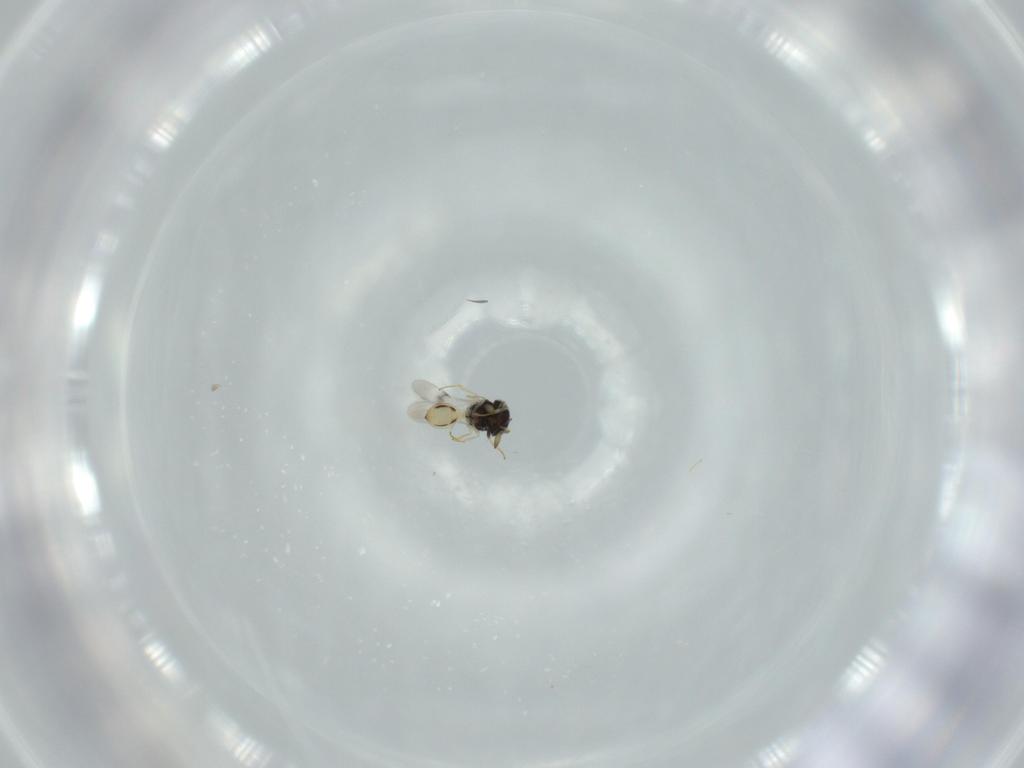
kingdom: Animalia
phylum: Arthropoda
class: Insecta
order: Hymenoptera
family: Scelionidae
